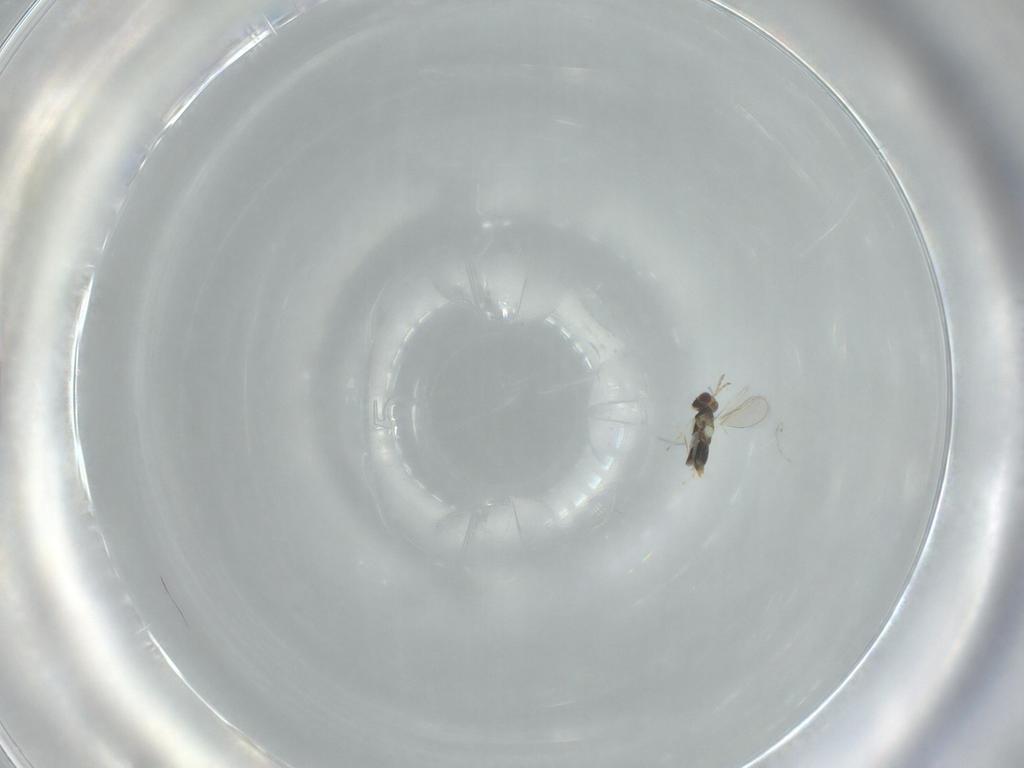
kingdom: Animalia
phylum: Arthropoda
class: Insecta
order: Hymenoptera
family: Aphelinidae
